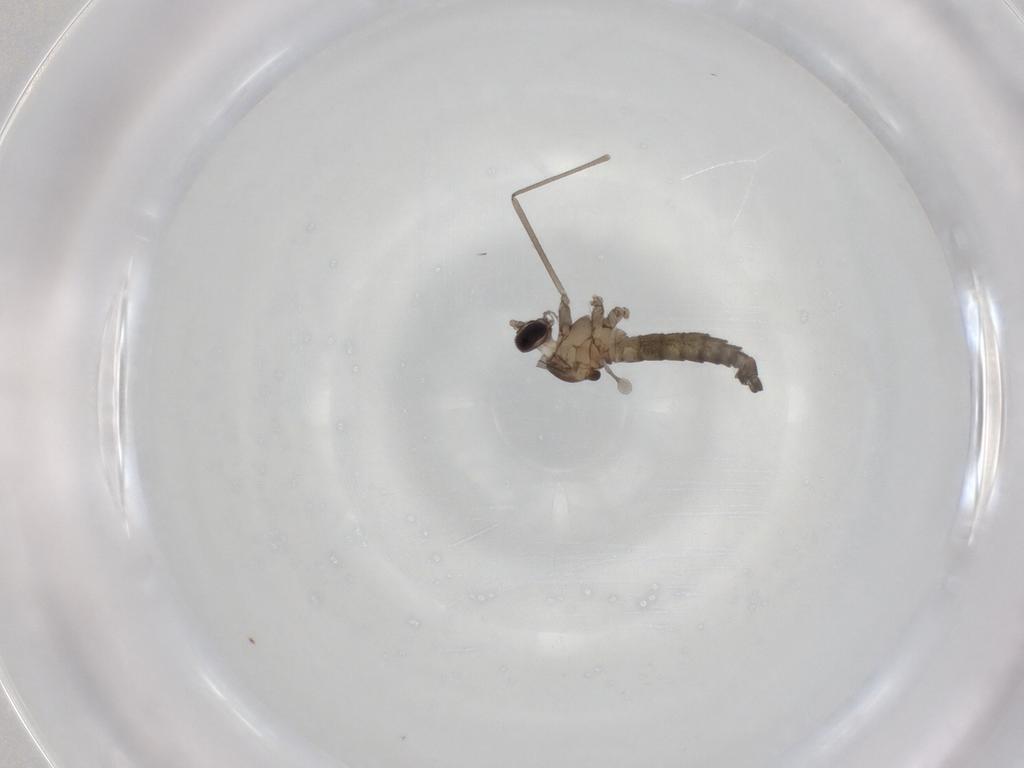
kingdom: Animalia
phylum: Arthropoda
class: Insecta
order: Diptera
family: Cecidomyiidae
